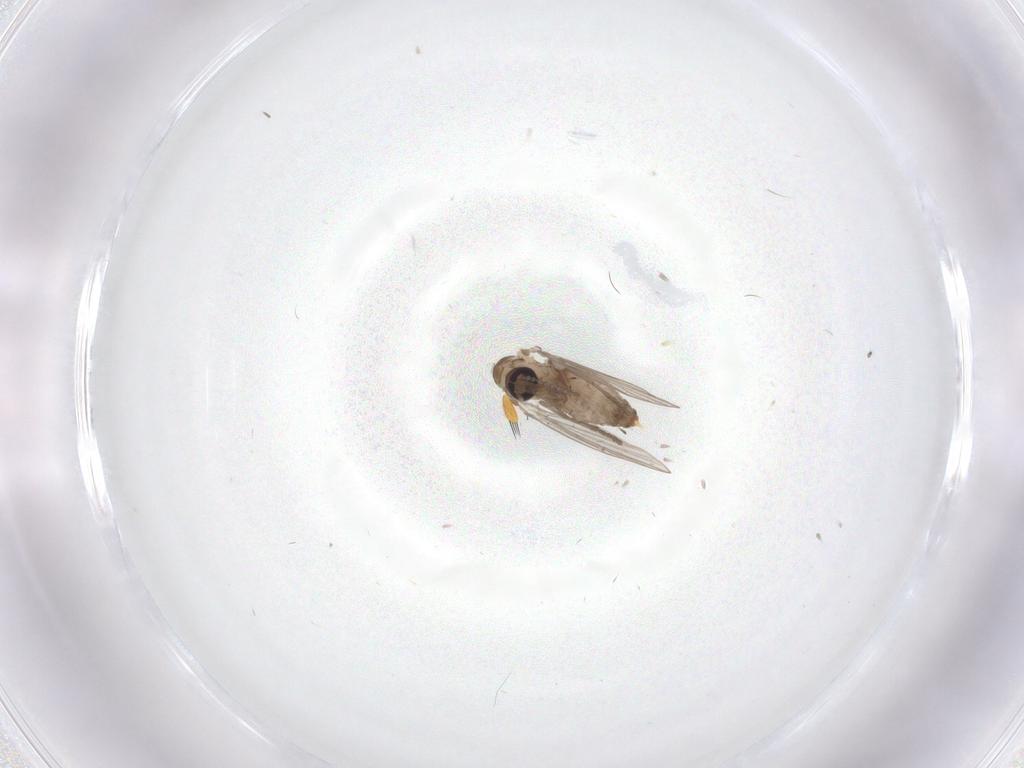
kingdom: Animalia
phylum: Arthropoda
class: Insecta
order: Diptera
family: Psychodidae
